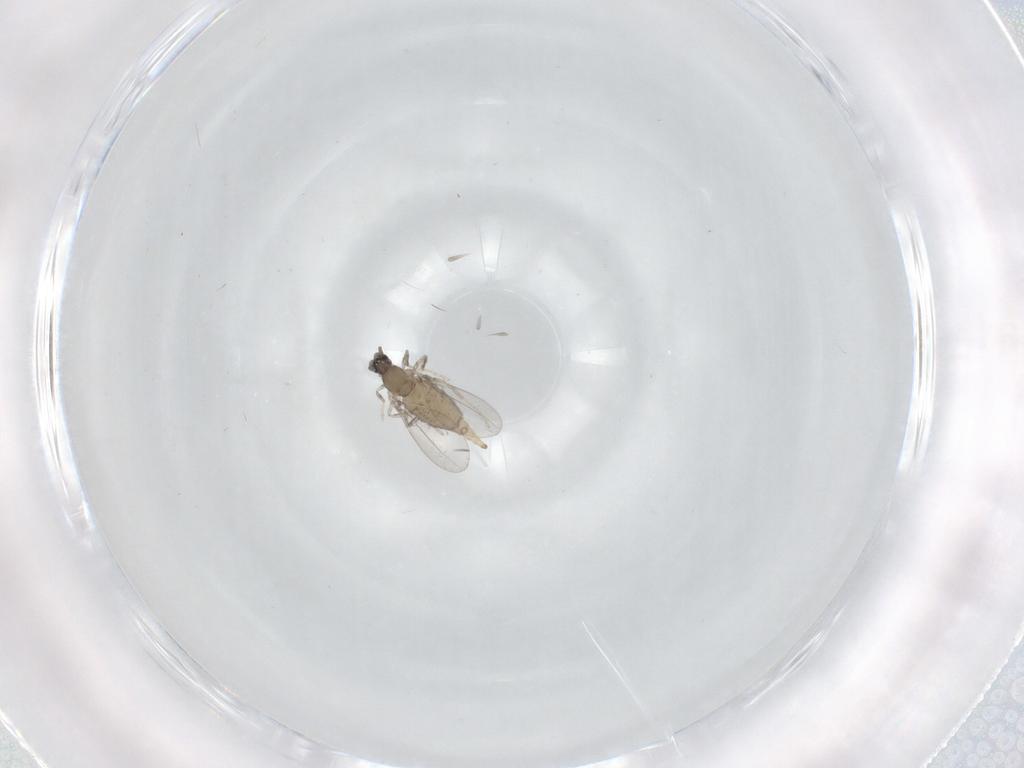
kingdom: Animalia
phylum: Arthropoda
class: Insecta
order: Diptera
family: Cecidomyiidae
